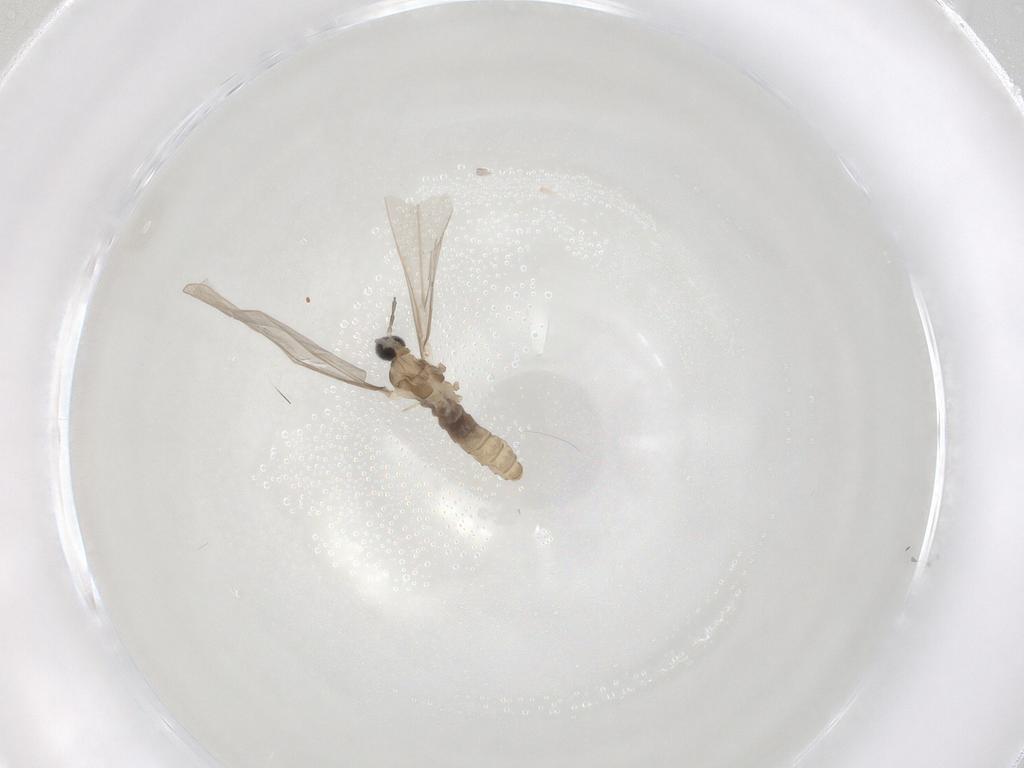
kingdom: Animalia
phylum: Arthropoda
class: Insecta
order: Diptera
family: Cecidomyiidae
